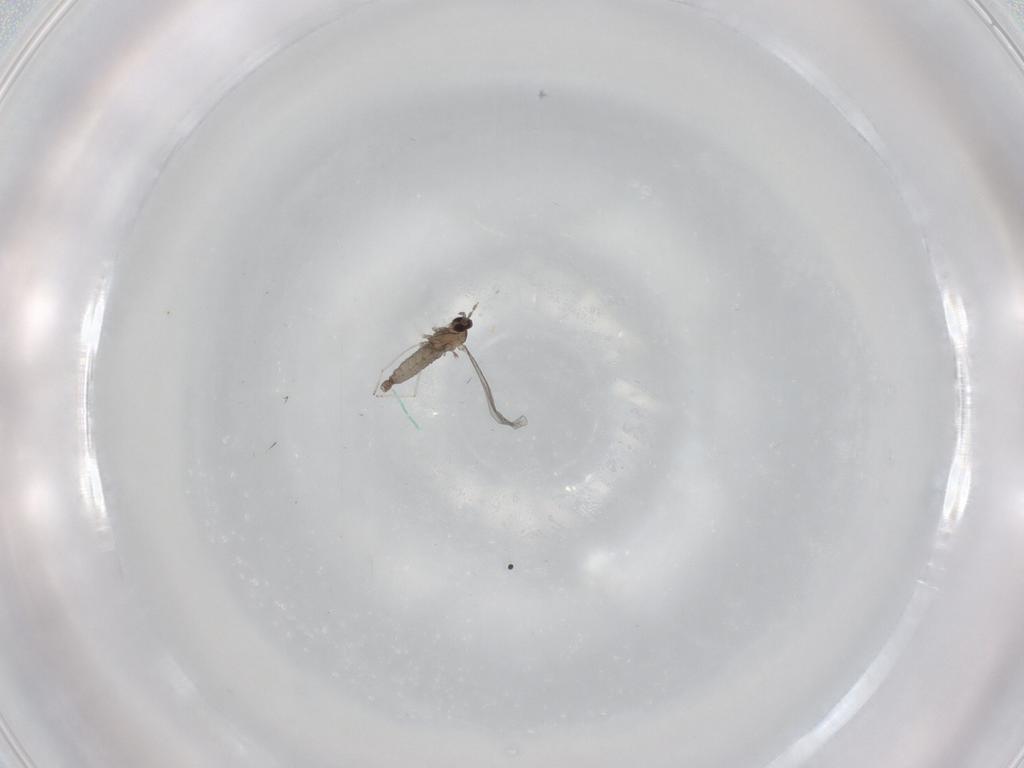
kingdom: Animalia
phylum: Arthropoda
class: Insecta
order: Diptera
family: Cecidomyiidae
